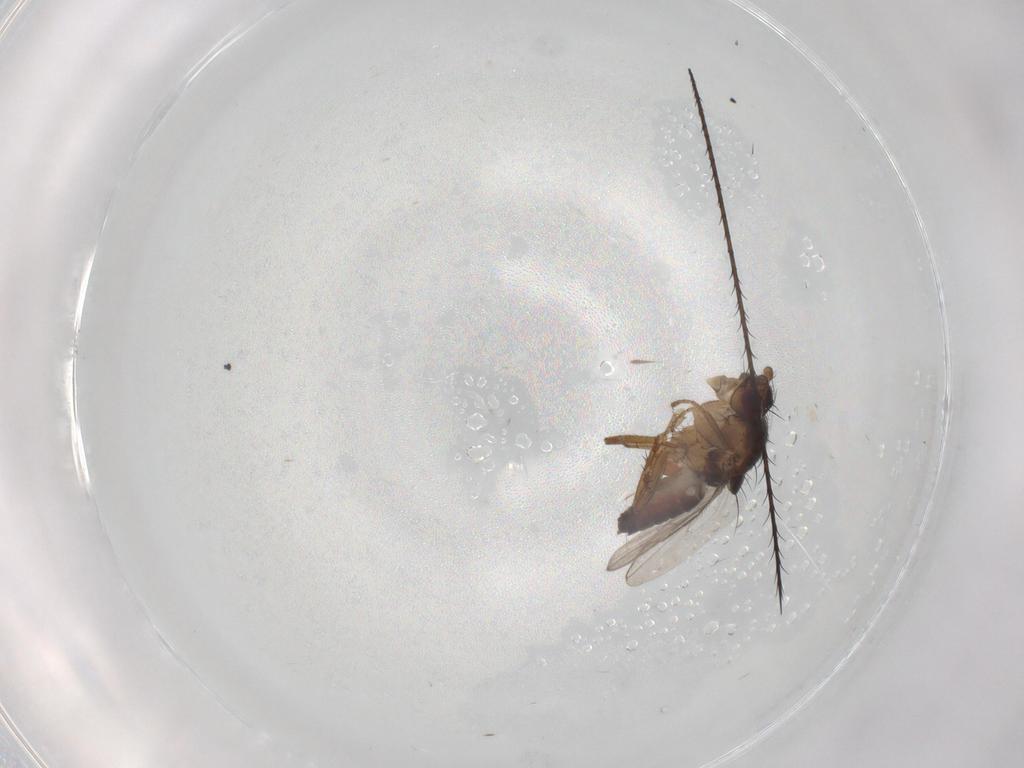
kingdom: Animalia
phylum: Arthropoda
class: Insecta
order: Diptera
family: Sphaeroceridae
